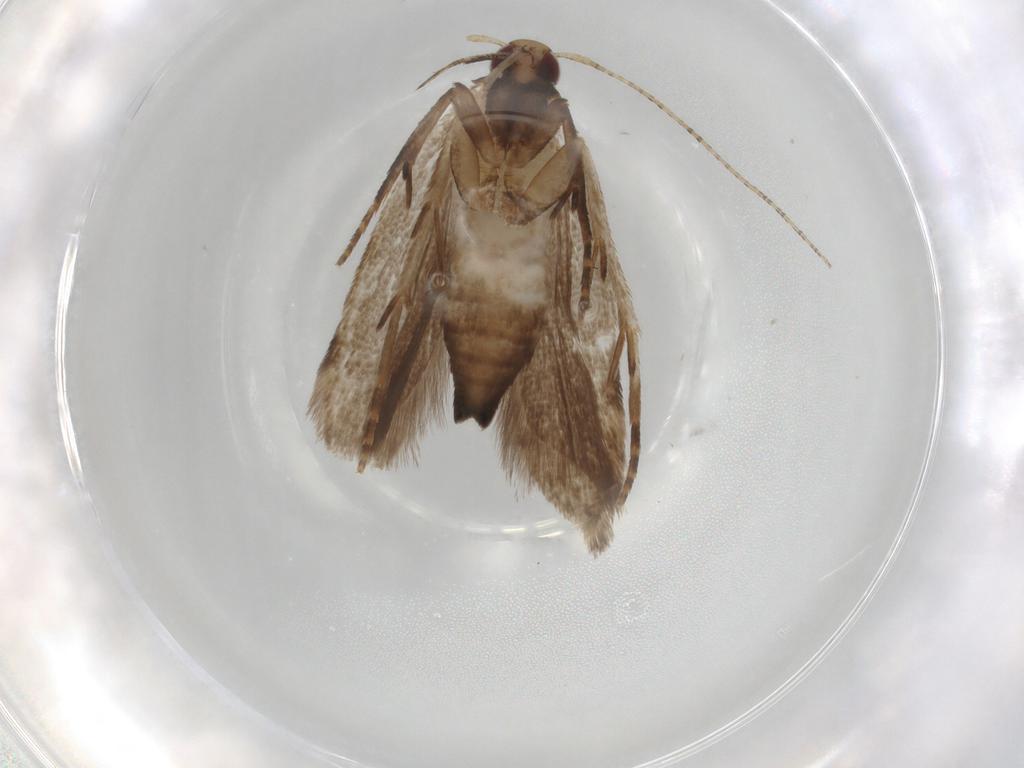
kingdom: Animalia
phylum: Arthropoda
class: Insecta
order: Lepidoptera
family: Gelechiidae
